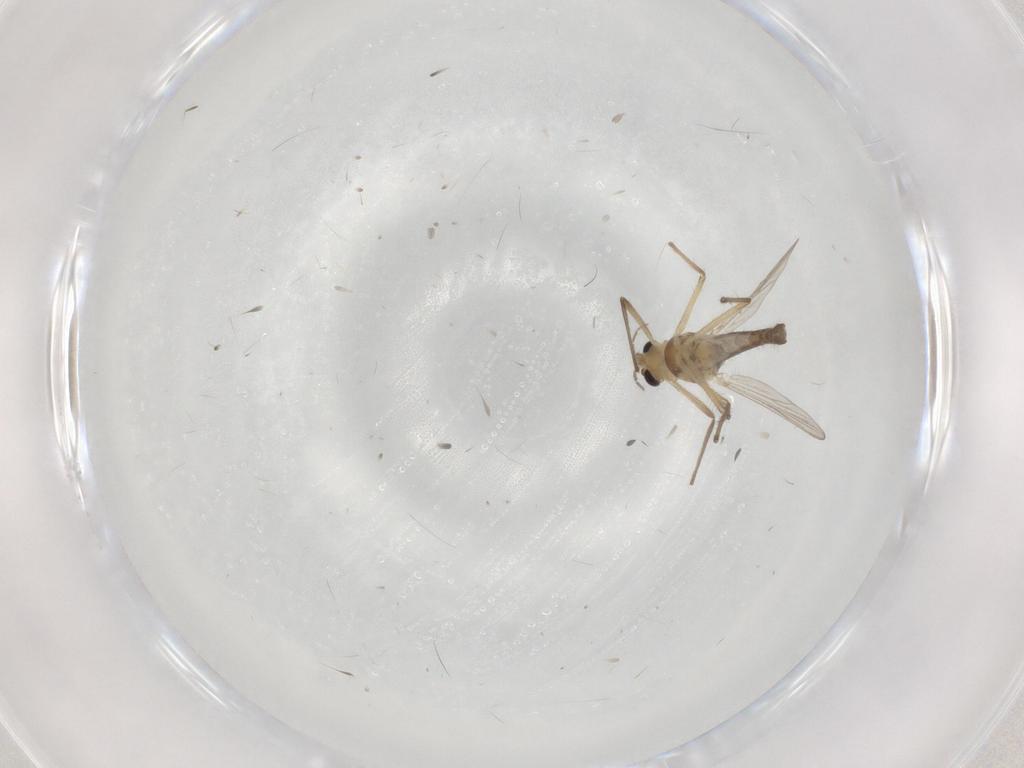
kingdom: Animalia
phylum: Arthropoda
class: Insecta
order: Diptera
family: Chironomidae
